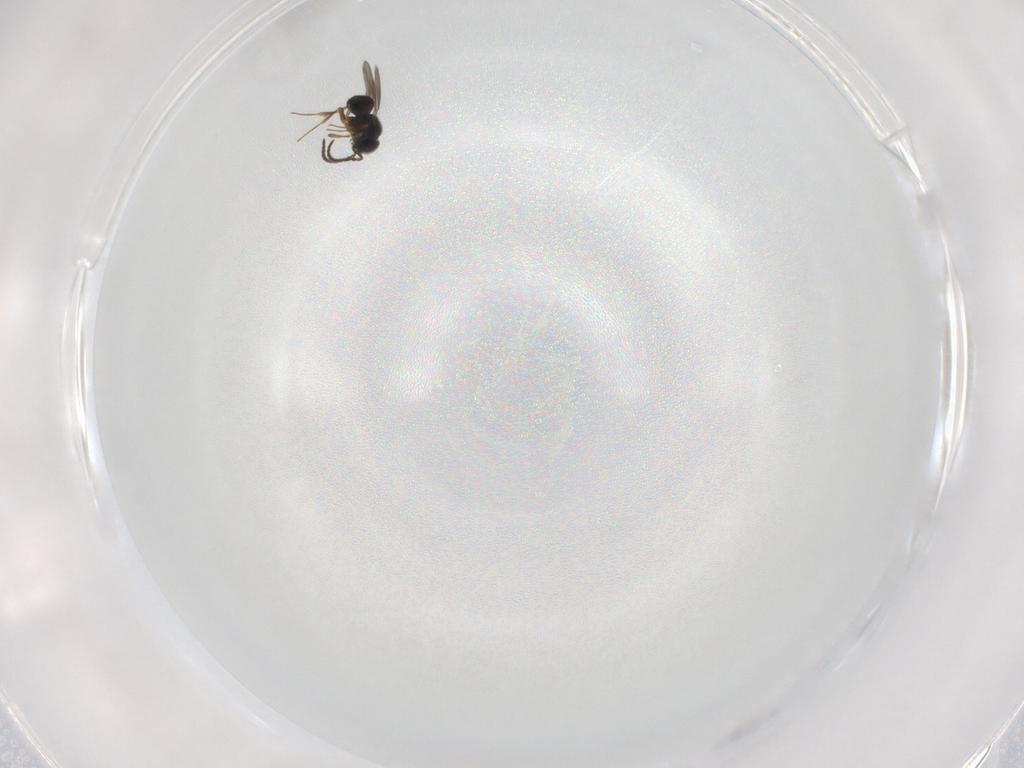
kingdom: Animalia
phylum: Arthropoda
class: Insecta
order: Hymenoptera
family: Scelionidae
